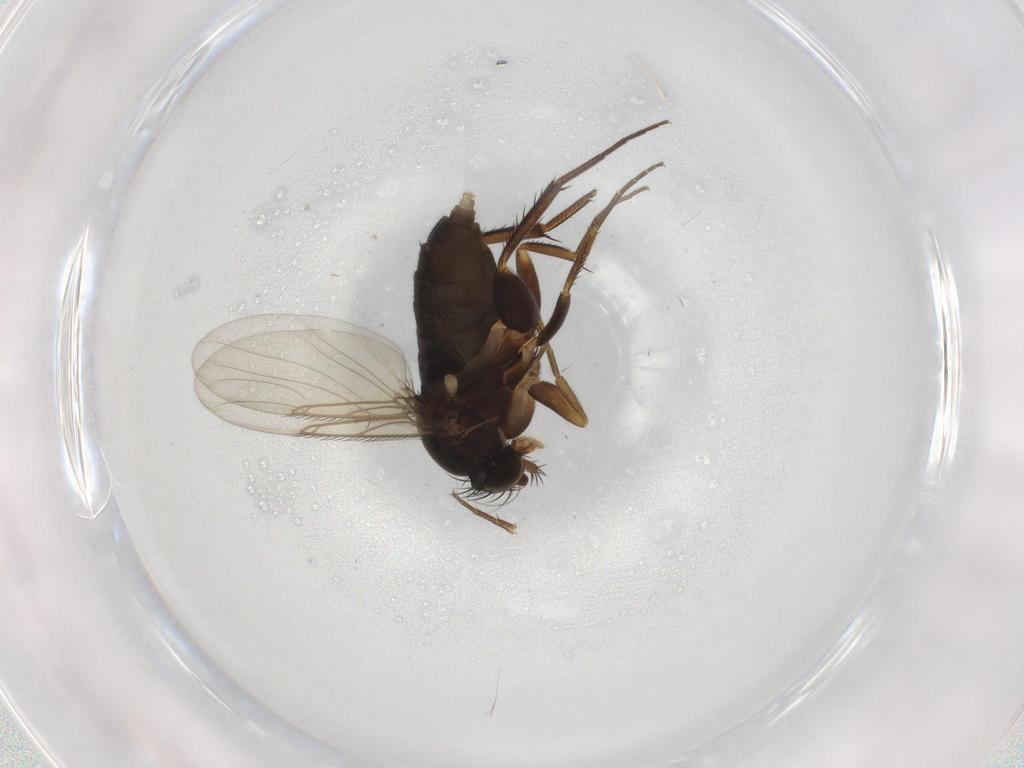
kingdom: Animalia
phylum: Arthropoda
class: Insecta
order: Diptera
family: Phoridae
